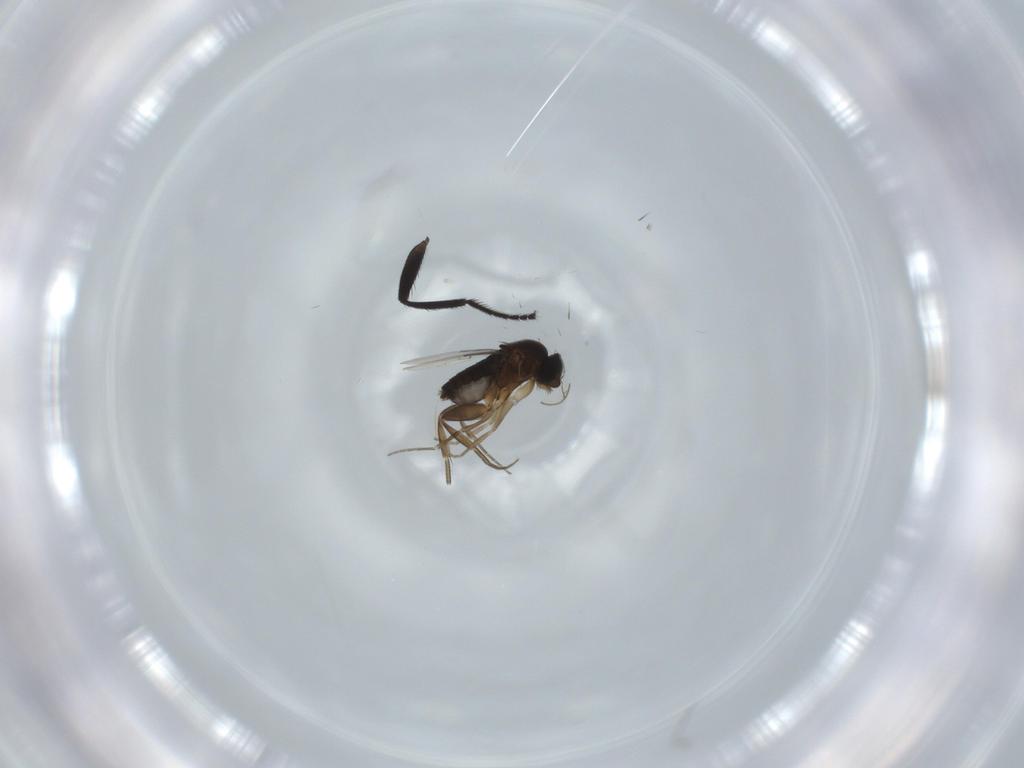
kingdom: Animalia
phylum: Arthropoda
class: Insecta
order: Diptera
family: Phoridae
